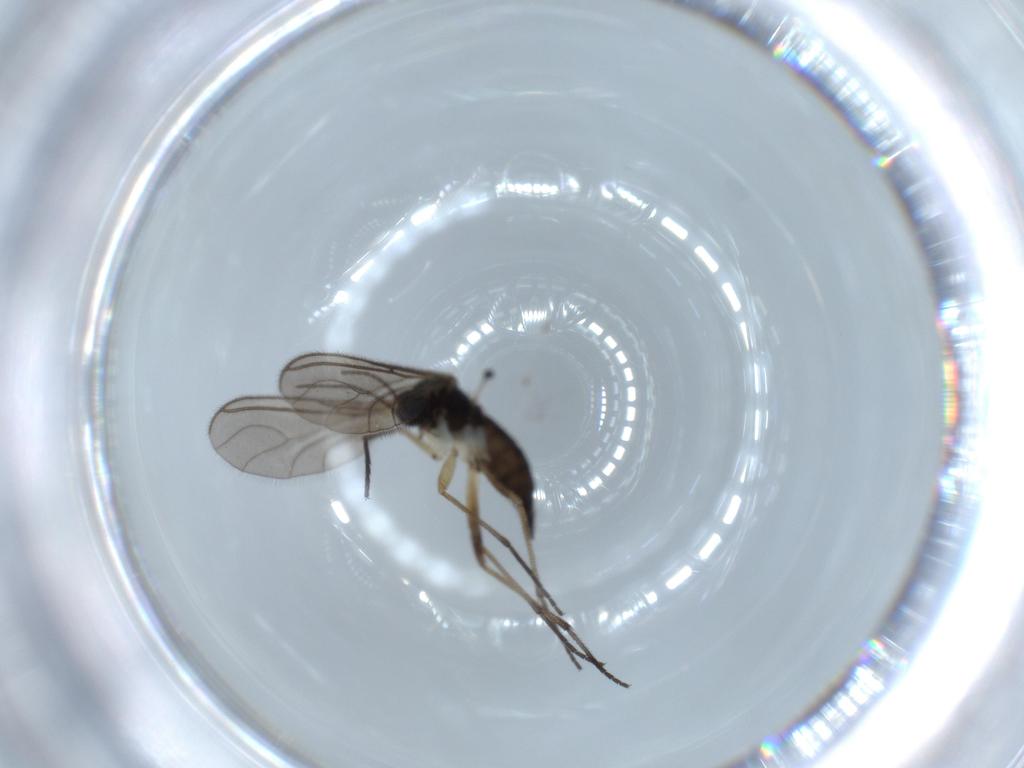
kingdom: Animalia
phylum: Arthropoda
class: Insecta
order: Diptera
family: Sciaridae
